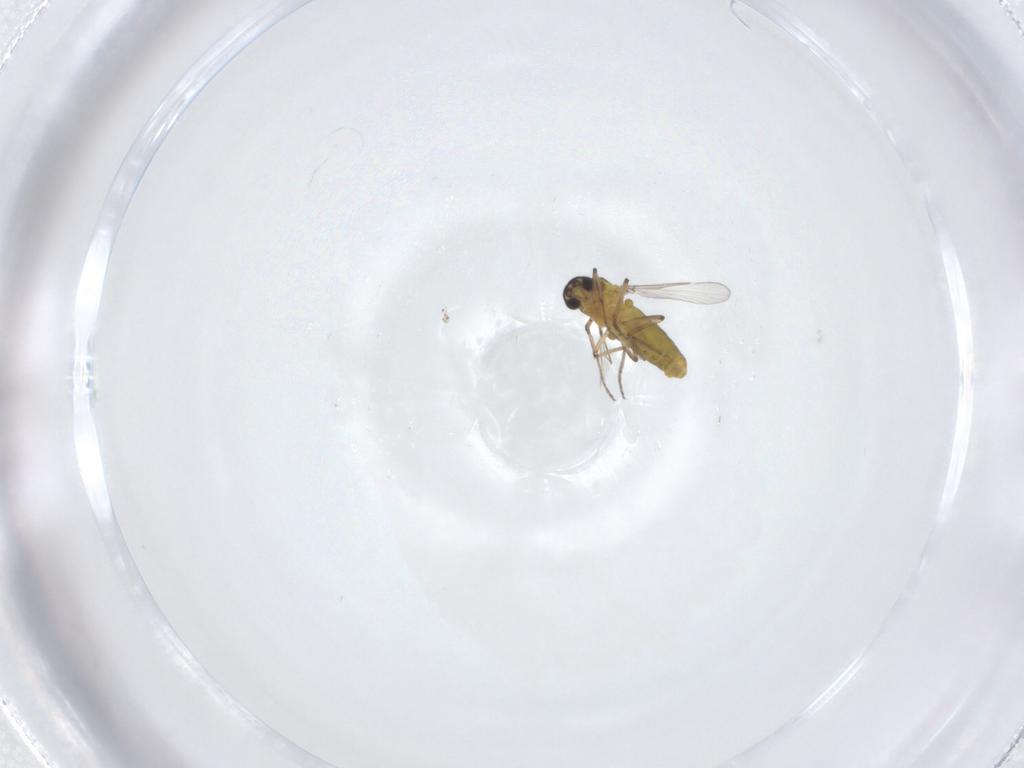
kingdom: Animalia
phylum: Arthropoda
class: Insecta
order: Diptera
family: Ceratopogonidae
